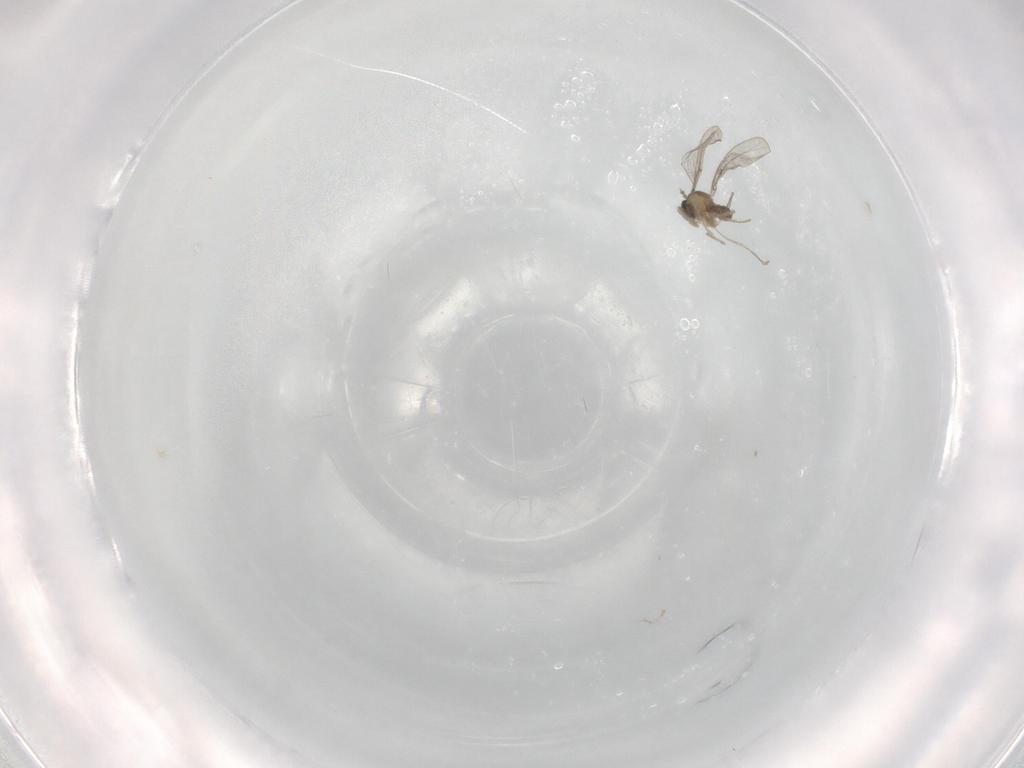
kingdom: Animalia
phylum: Arthropoda
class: Insecta
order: Diptera
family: Cecidomyiidae
